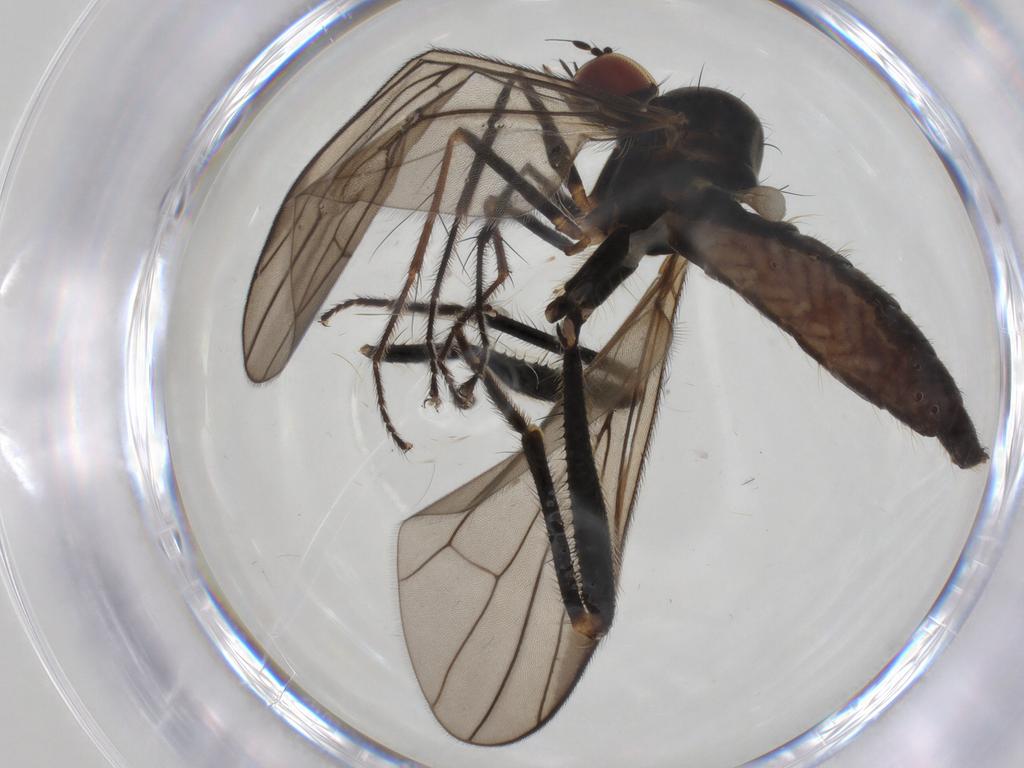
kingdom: Animalia
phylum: Arthropoda
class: Insecta
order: Diptera
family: Hybotidae
